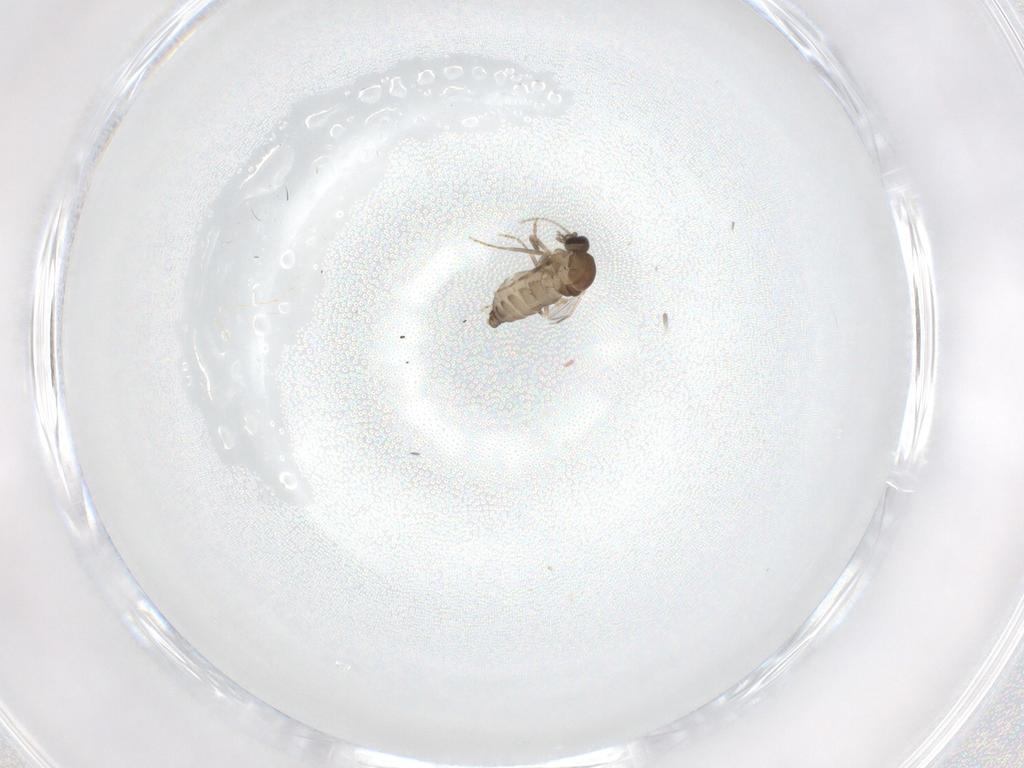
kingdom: Animalia
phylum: Arthropoda
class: Insecta
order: Diptera
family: Ceratopogonidae
